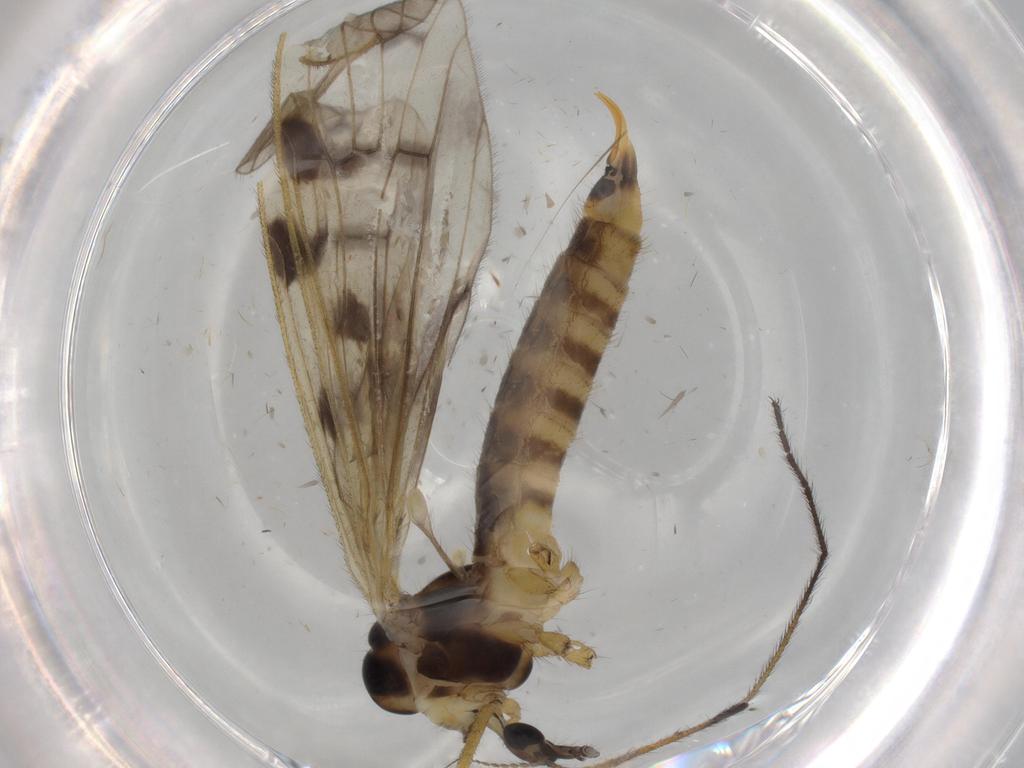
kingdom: Animalia
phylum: Arthropoda
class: Insecta
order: Diptera
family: Limoniidae
